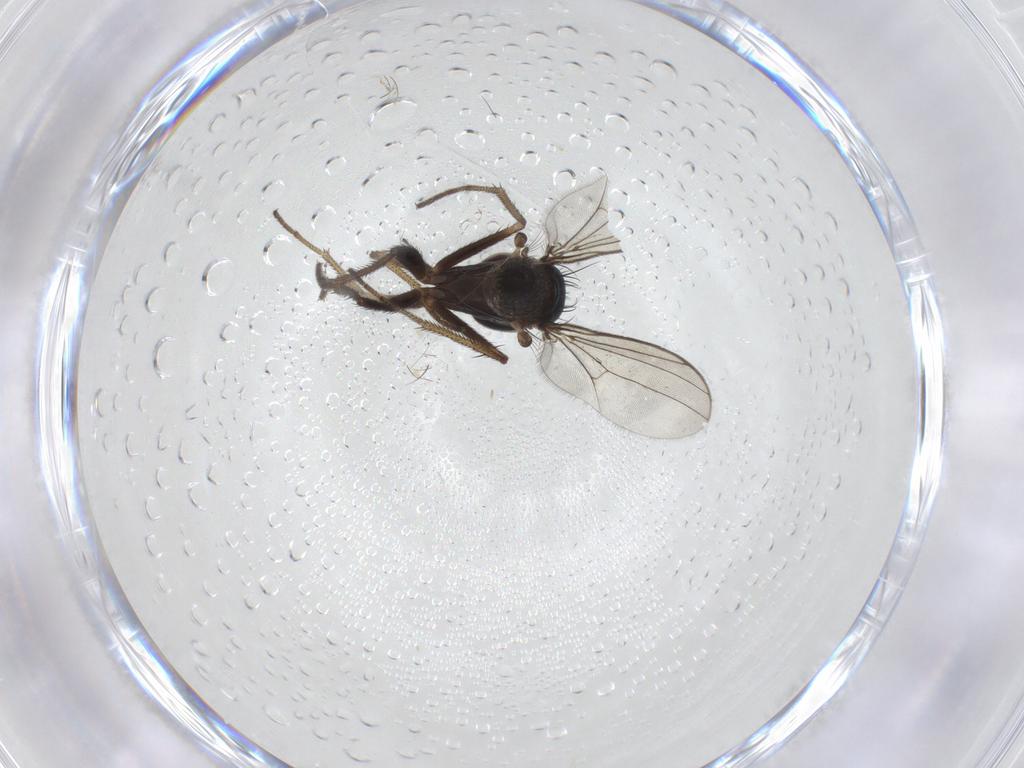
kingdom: Animalia
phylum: Arthropoda
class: Insecta
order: Diptera
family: Dolichopodidae
